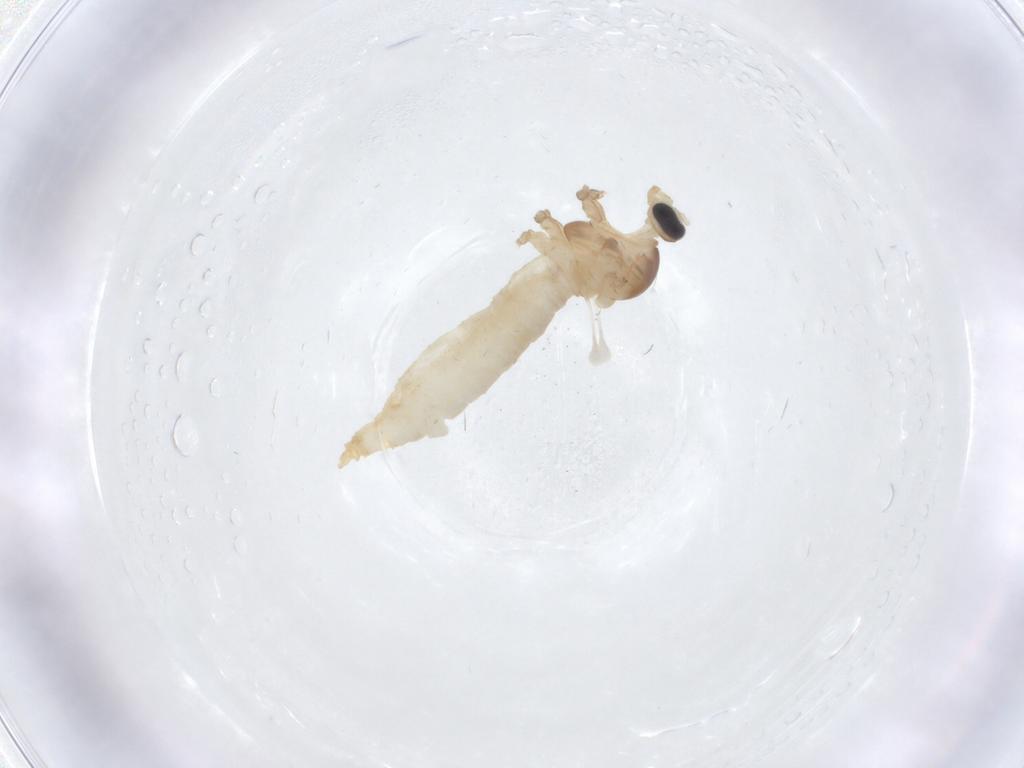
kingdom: Animalia
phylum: Arthropoda
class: Insecta
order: Diptera
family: Cecidomyiidae
